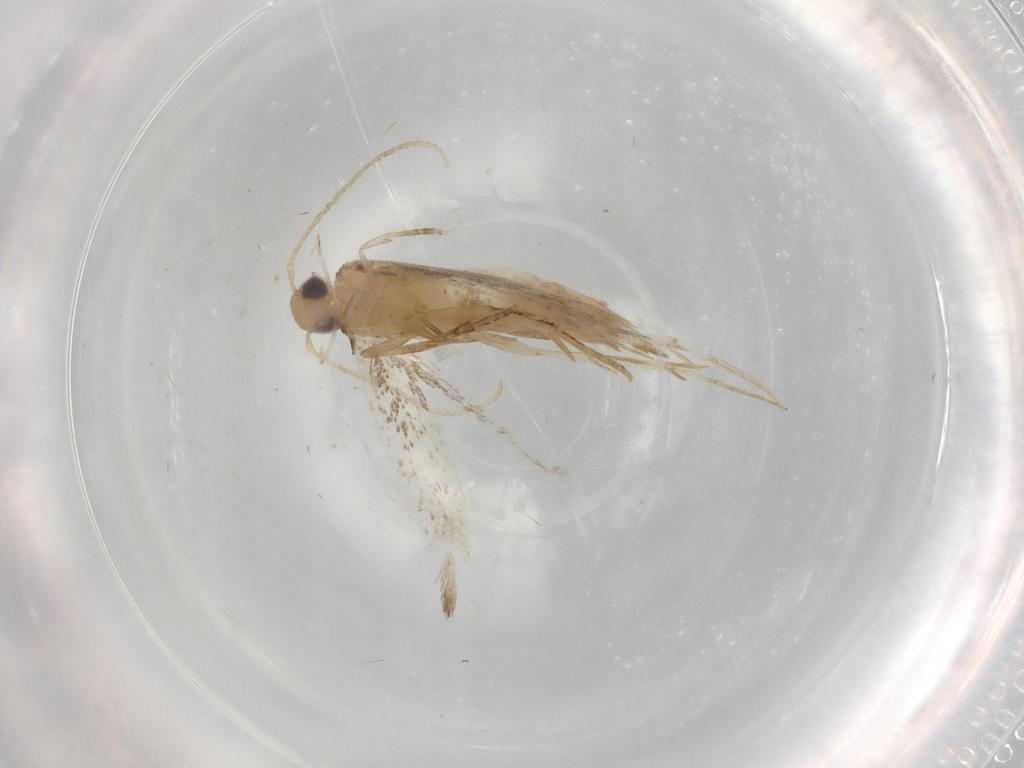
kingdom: Animalia
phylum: Arthropoda
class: Insecta
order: Lepidoptera
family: Cosmopterigidae
